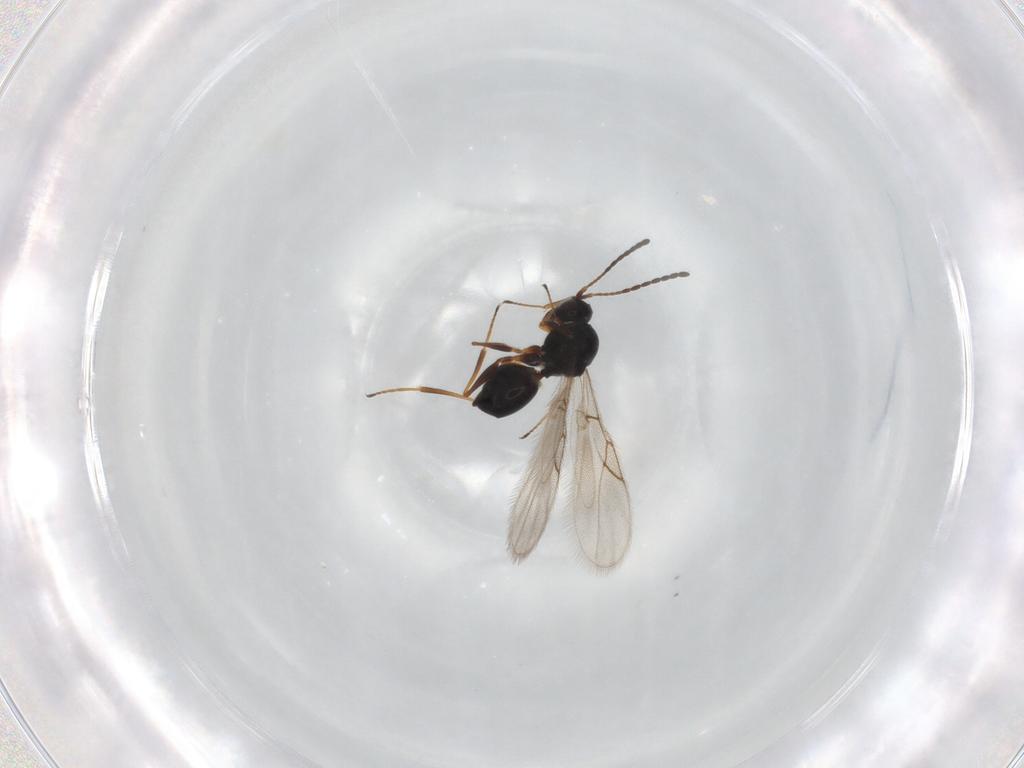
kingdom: Animalia
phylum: Arthropoda
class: Insecta
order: Hymenoptera
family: Figitidae
